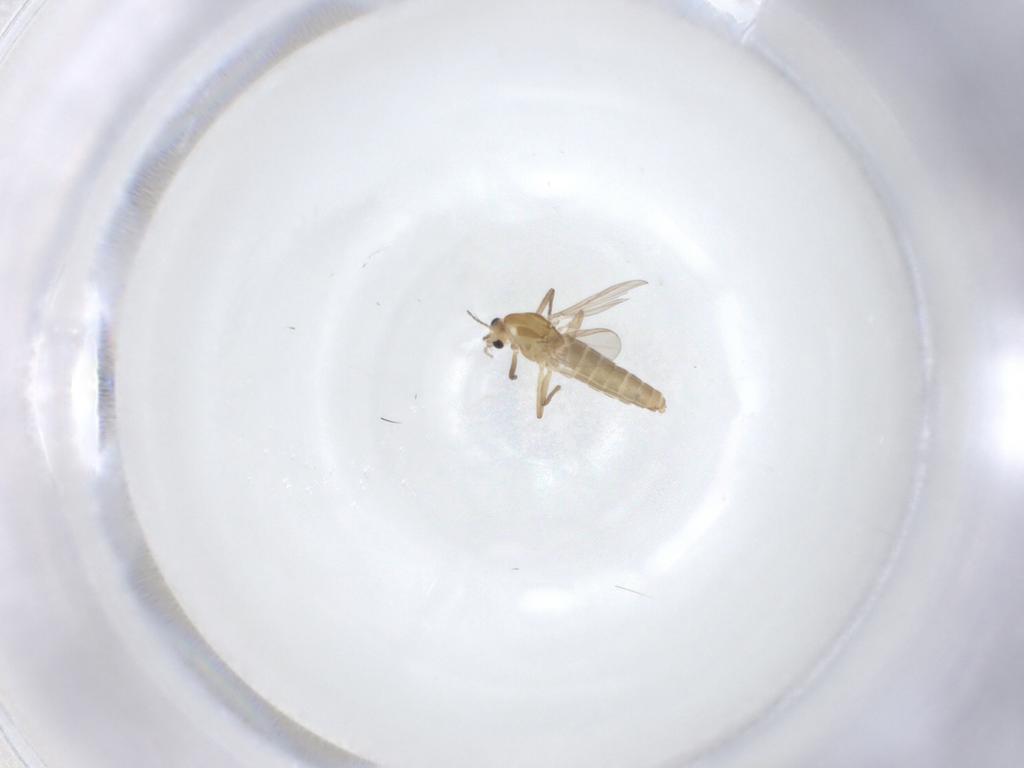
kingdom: Animalia
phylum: Arthropoda
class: Insecta
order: Diptera
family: Chironomidae
